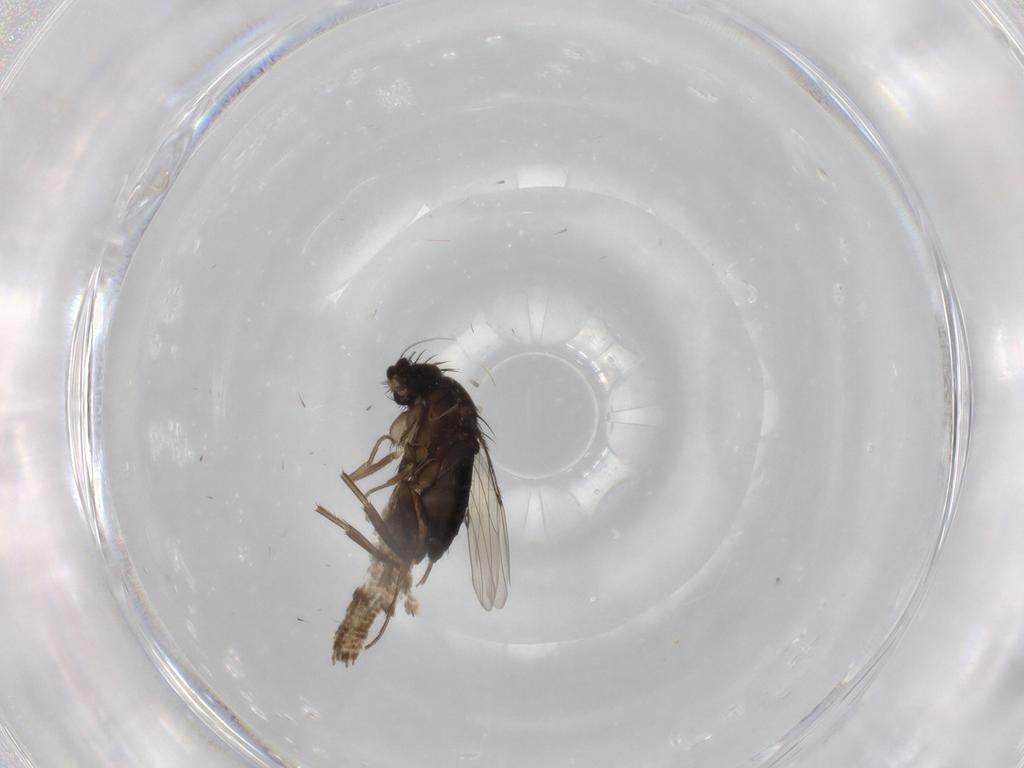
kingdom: Animalia
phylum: Arthropoda
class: Insecta
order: Diptera
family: Phoridae
